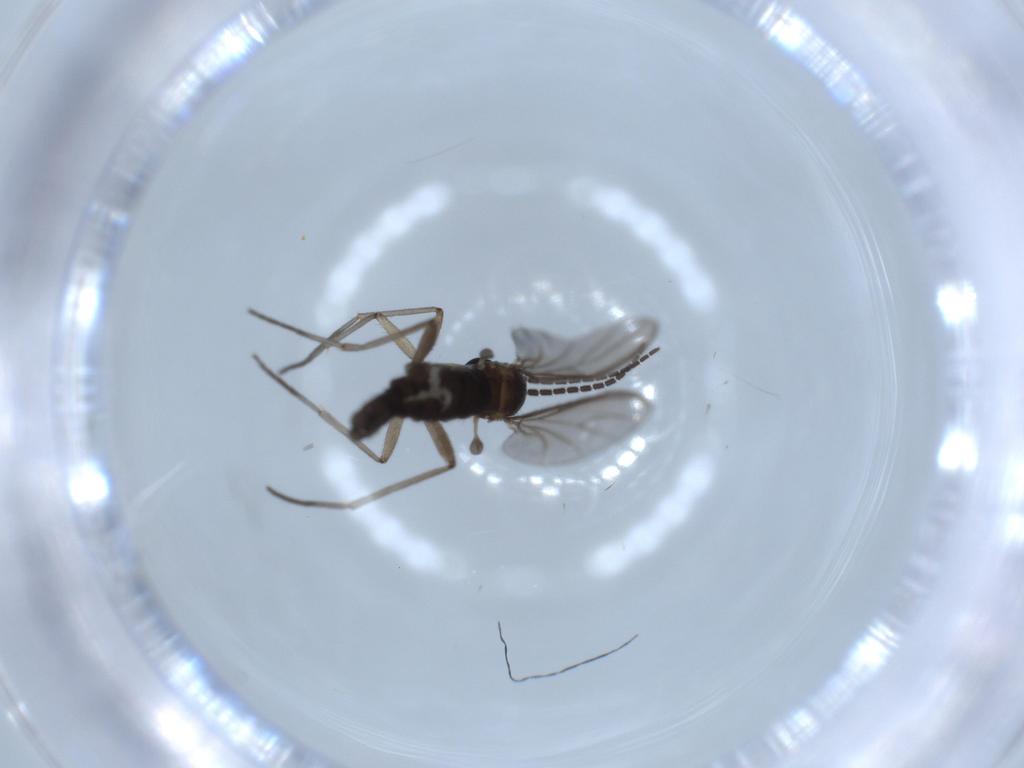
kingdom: Animalia
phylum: Arthropoda
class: Insecta
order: Diptera
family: Sciaridae
